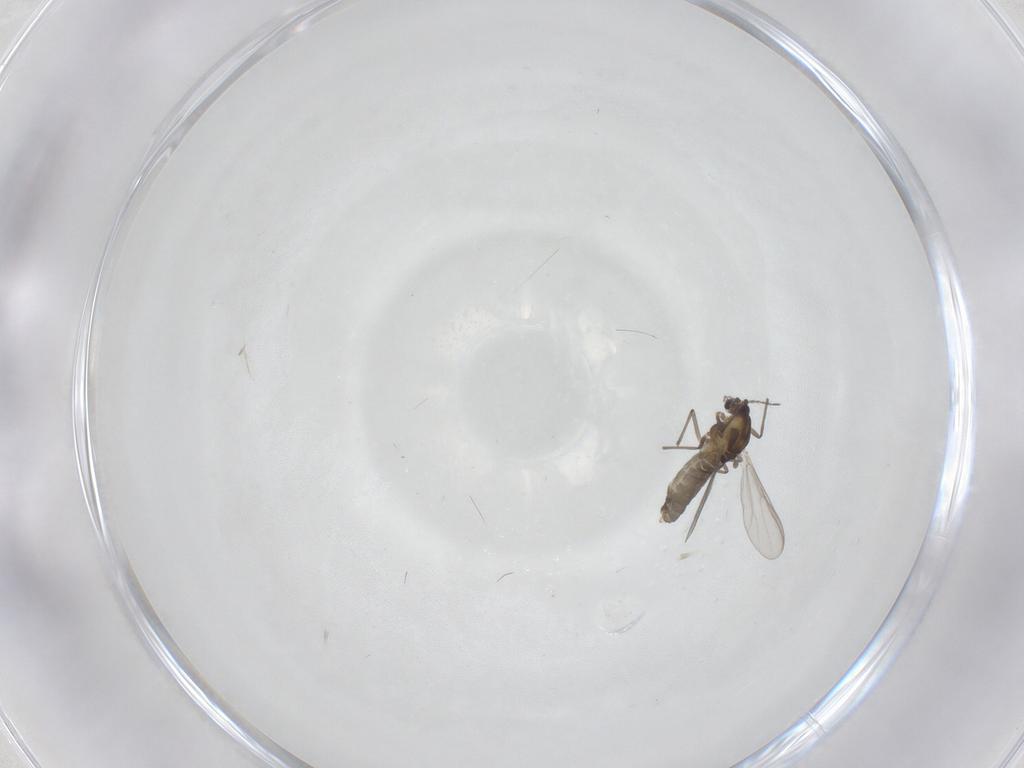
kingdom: Animalia
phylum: Arthropoda
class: Insecta
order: Diptera
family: Chironomidae
